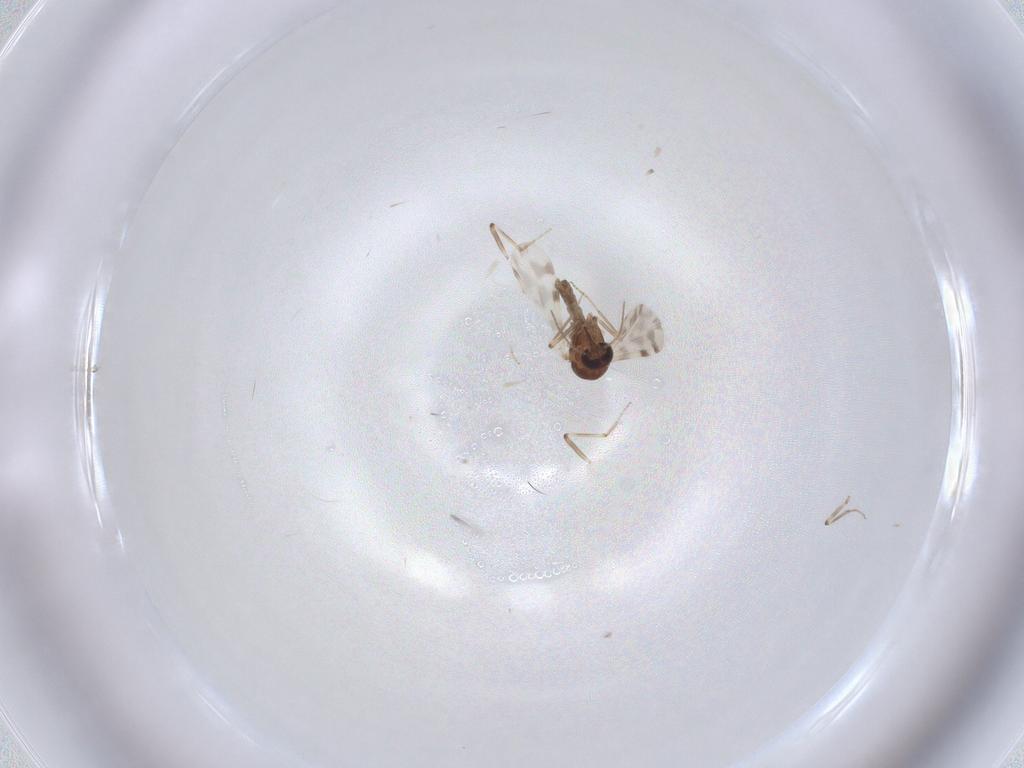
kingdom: Animalia
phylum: Arthropoda
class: Insecta
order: Diptera
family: Ceratopogonidae
